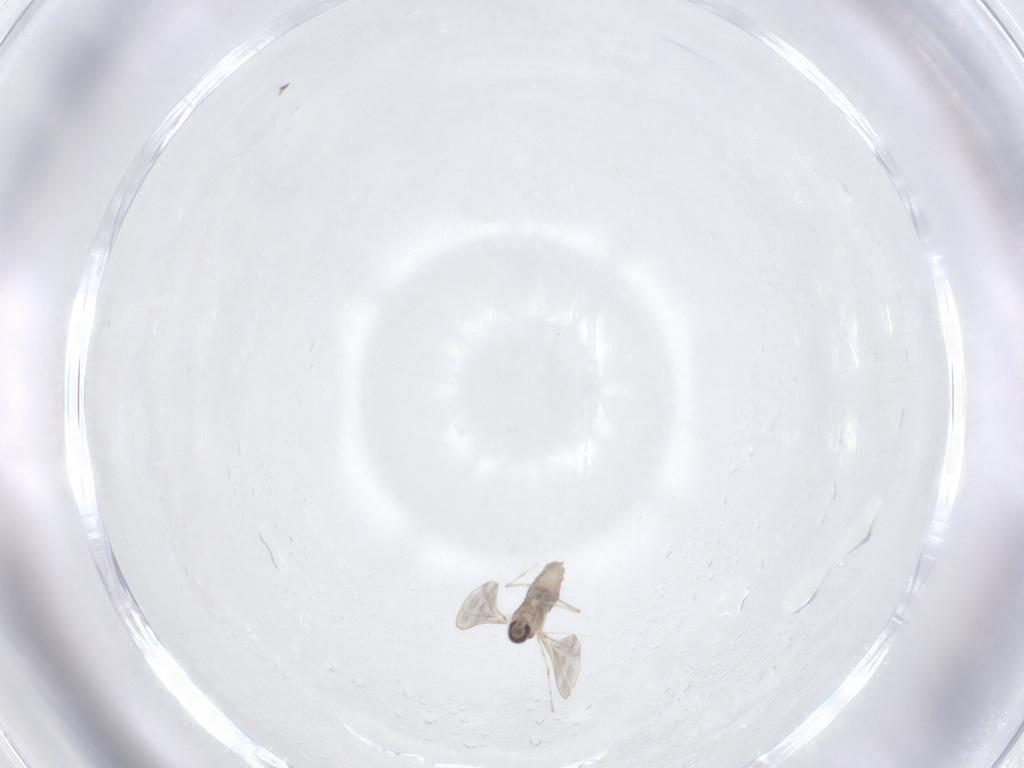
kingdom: Animalia
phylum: Arthropoda
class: Insecta
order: Diptera
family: Cecidomyiidae
